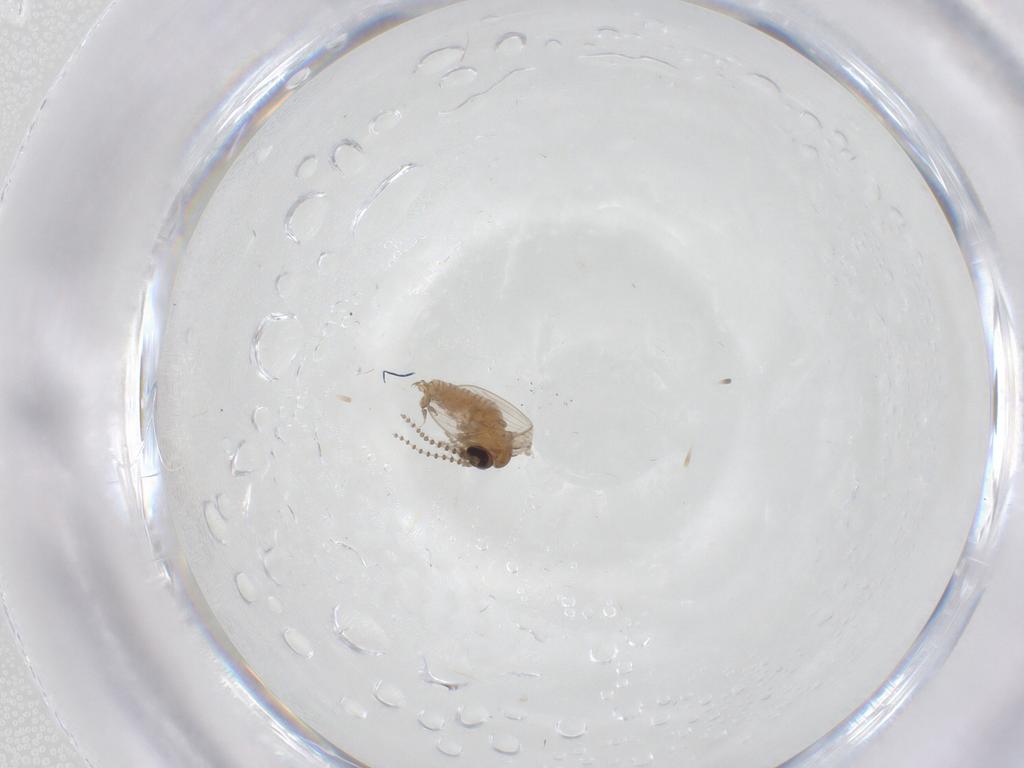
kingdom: Animalia
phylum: Arthropoda
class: Insecta
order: Diptera
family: Psychodidae
